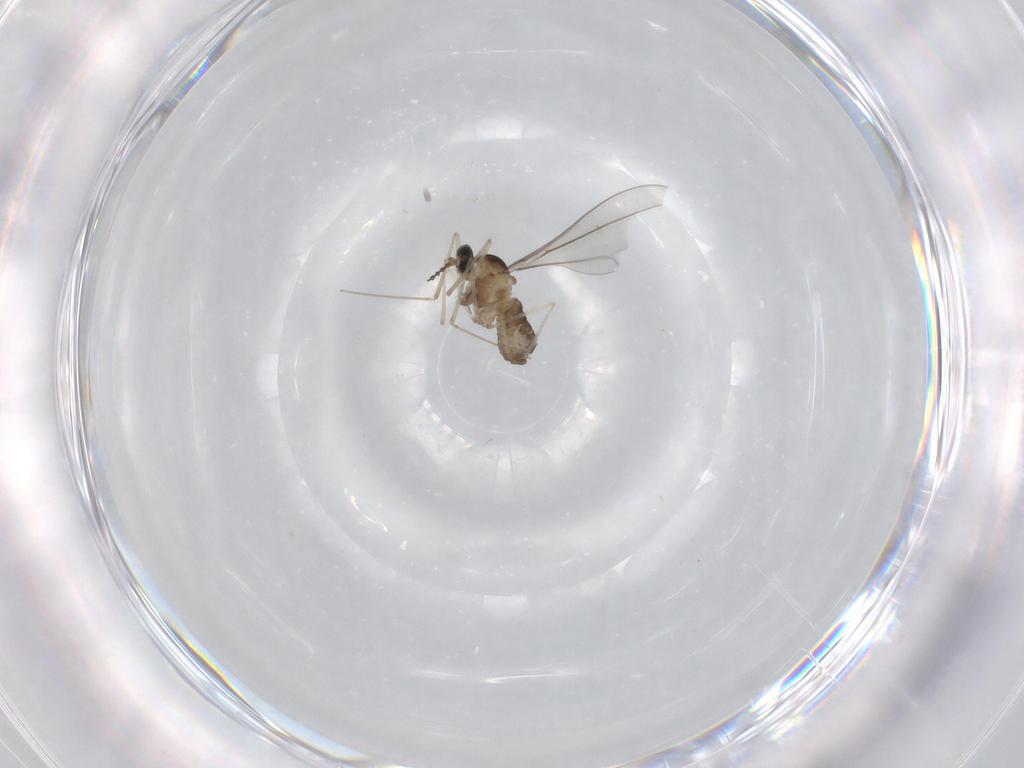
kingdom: Animalia
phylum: Arthropoda
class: Insecta
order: Diptera
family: Cecidomyiidae
